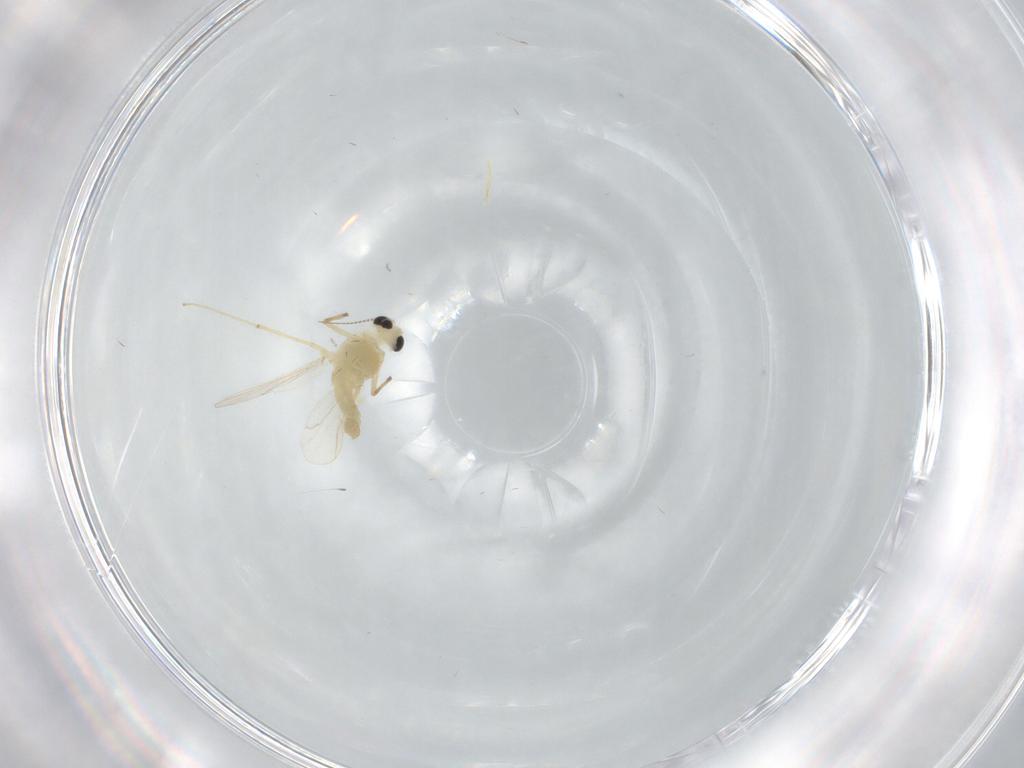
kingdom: Animalia
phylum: Arthropoda
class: Insecta
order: Diptera
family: Chironomidae
